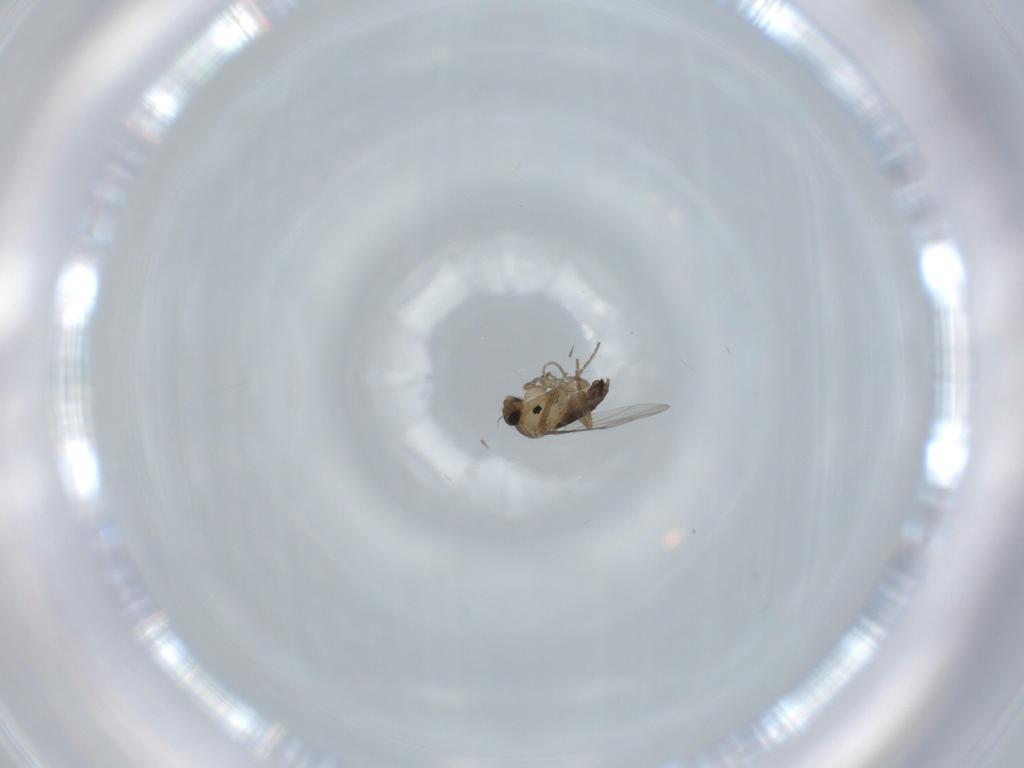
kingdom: Animalia
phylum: Arthropoda
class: Insecta
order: Diptera
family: Phoridae
